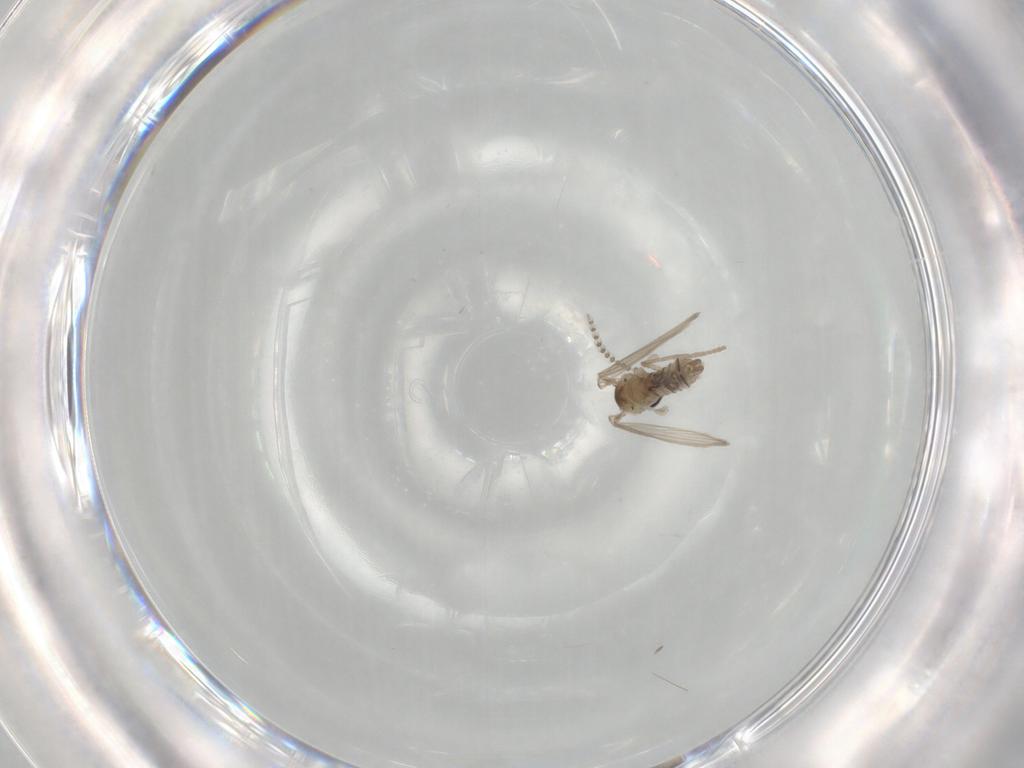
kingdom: Animalia
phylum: Arthropoda
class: Insecta
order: Diptera
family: Psychodidae
